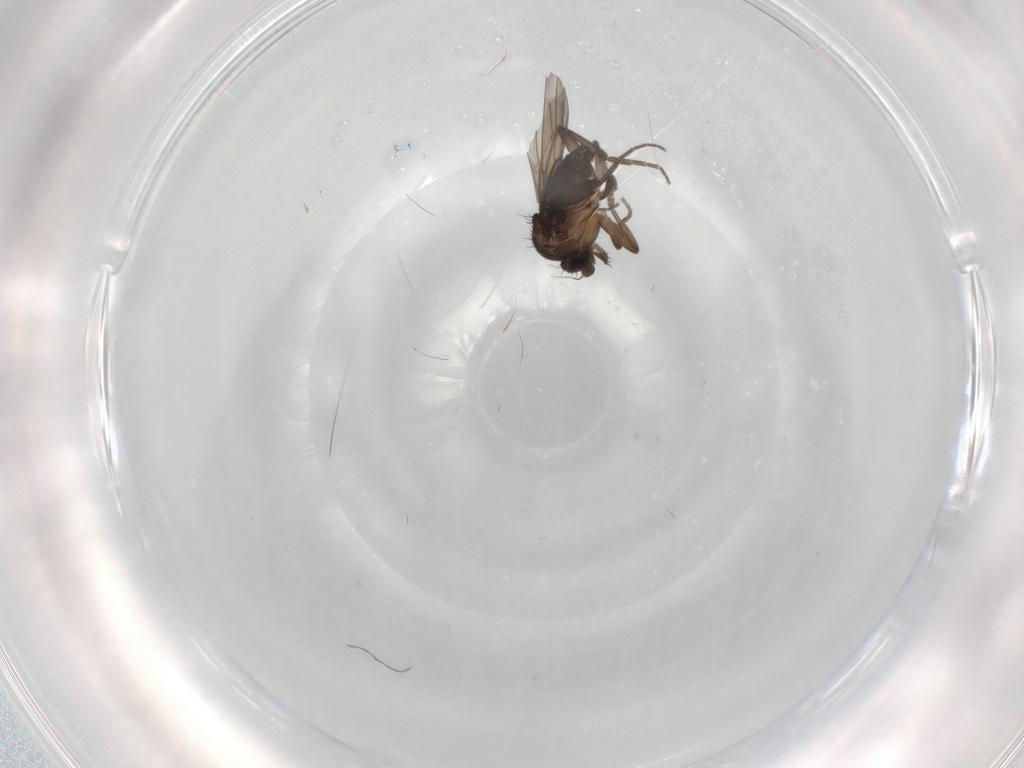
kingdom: Animalia
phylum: Arthropoda
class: Insecta
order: Diptera
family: Phoridae
